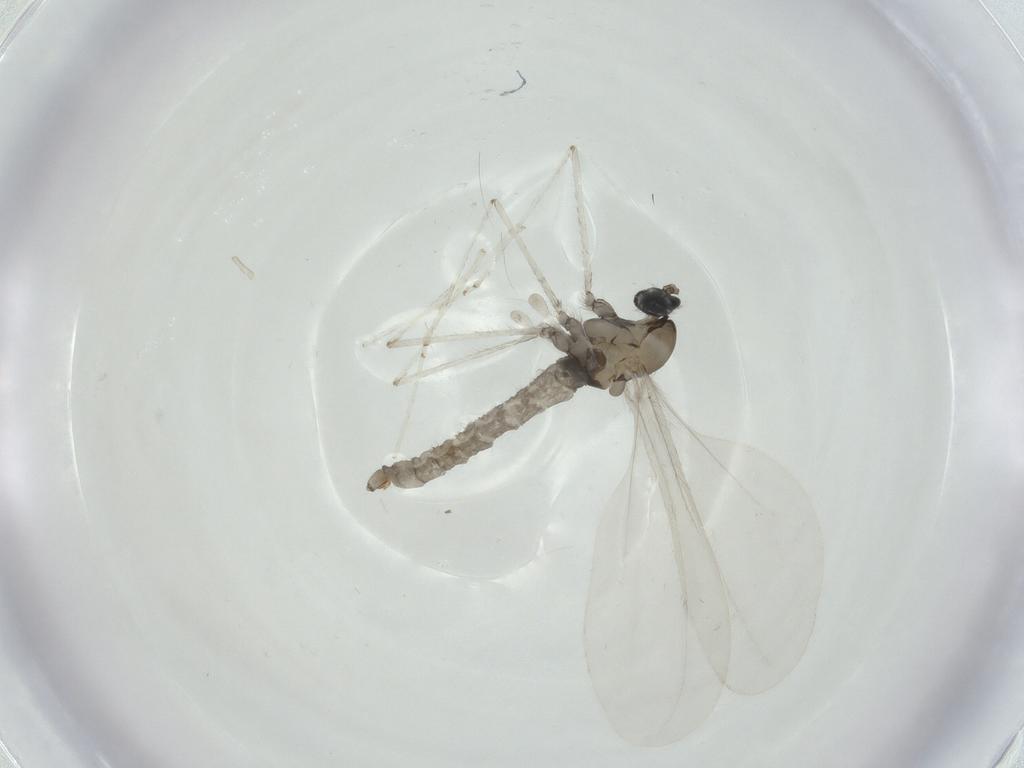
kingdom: Animalia
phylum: Arthropoda
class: Insecta
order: Diptera
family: Cecidomyiidae
